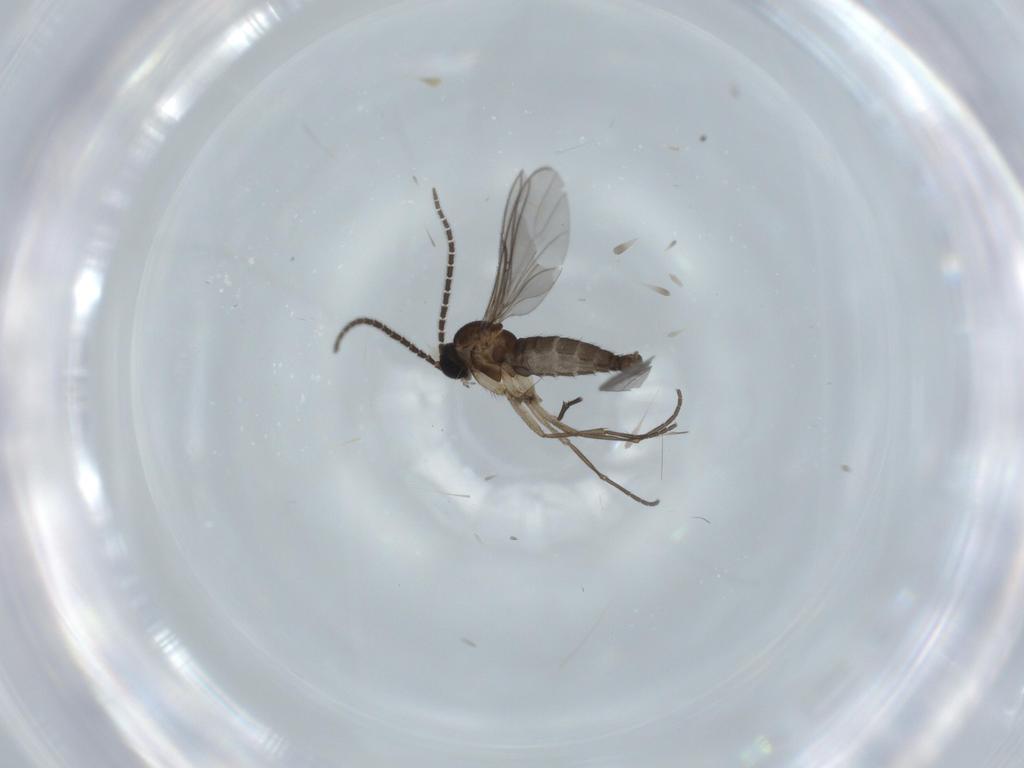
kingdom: Animalia
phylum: Arthropoda
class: Insecta
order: Diptera
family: Sciaridae
